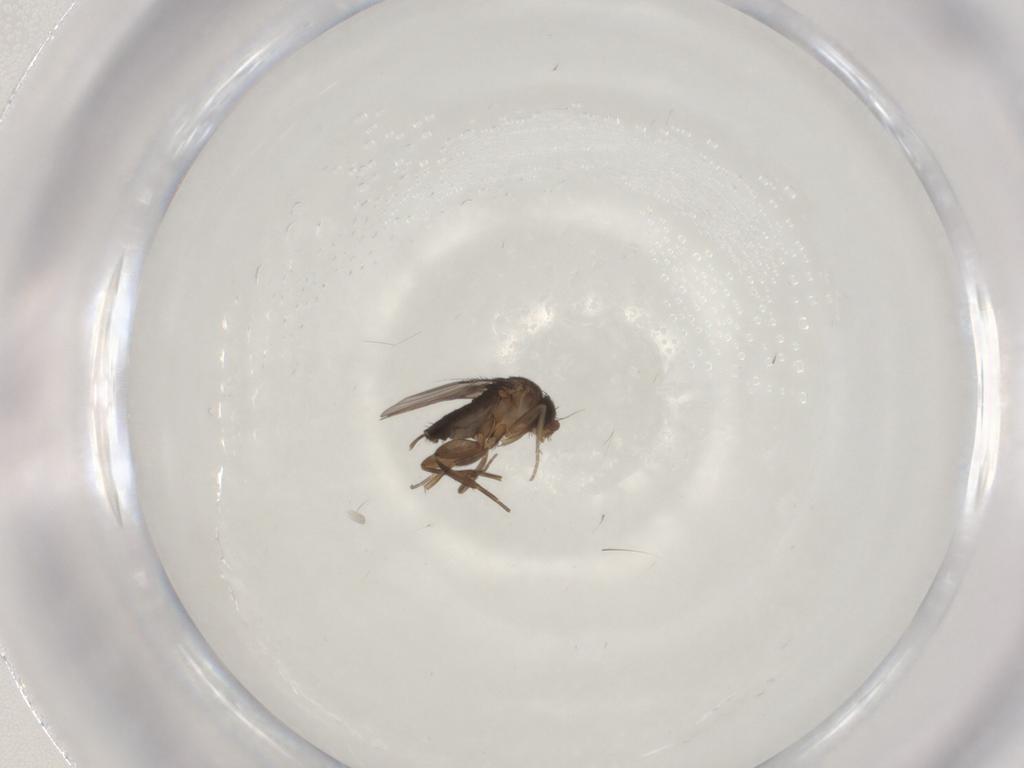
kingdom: Animalia
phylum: Arthropoda
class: Insecta
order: Diptera
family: Phoridae
